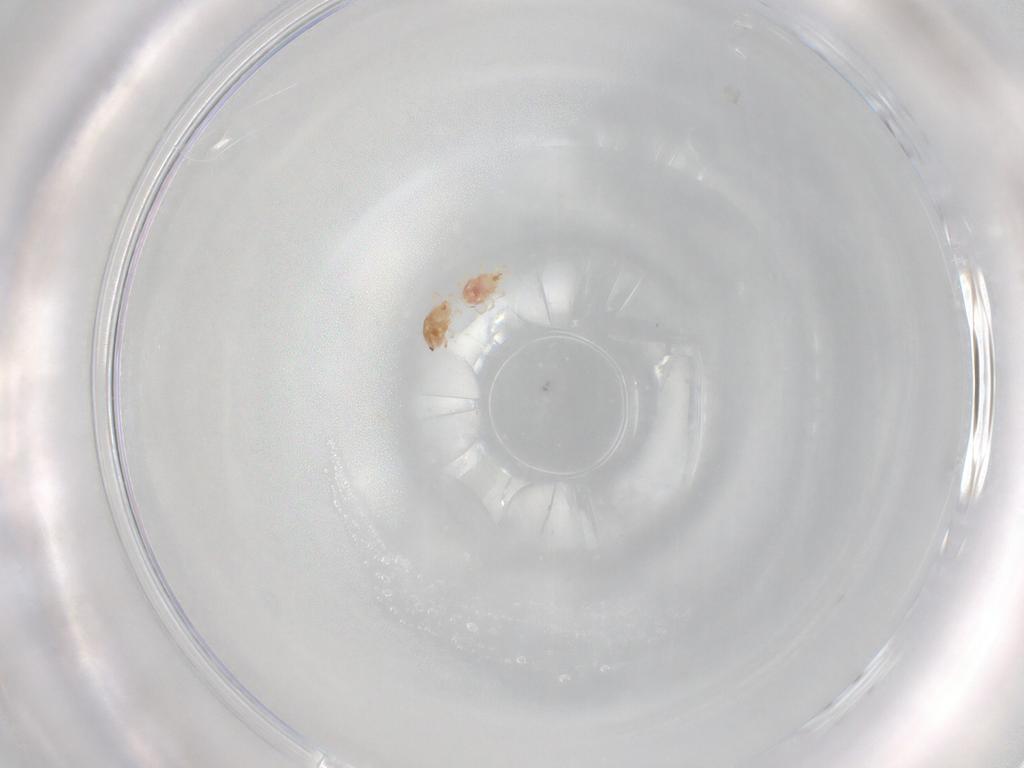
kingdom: Animalia
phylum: Arthropoda
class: Arachnida
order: Mesostigmata
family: Phytoseiidae
